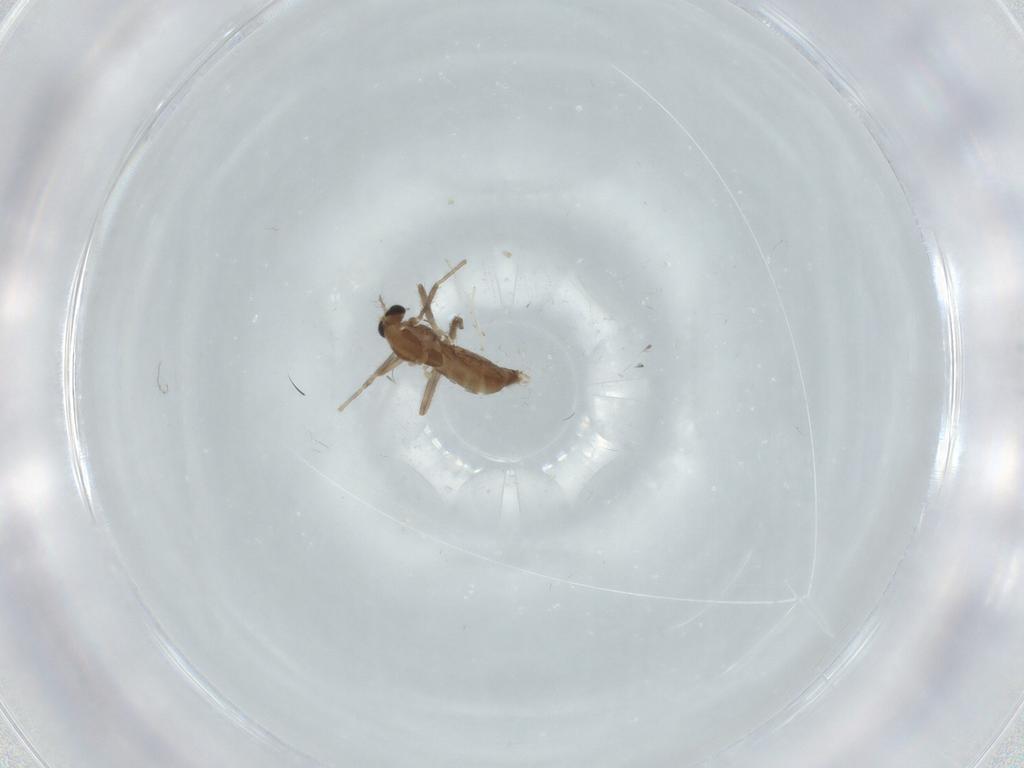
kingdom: Animalia
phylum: Arthropoda
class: Insecta
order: Diptera
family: Chironomidae
